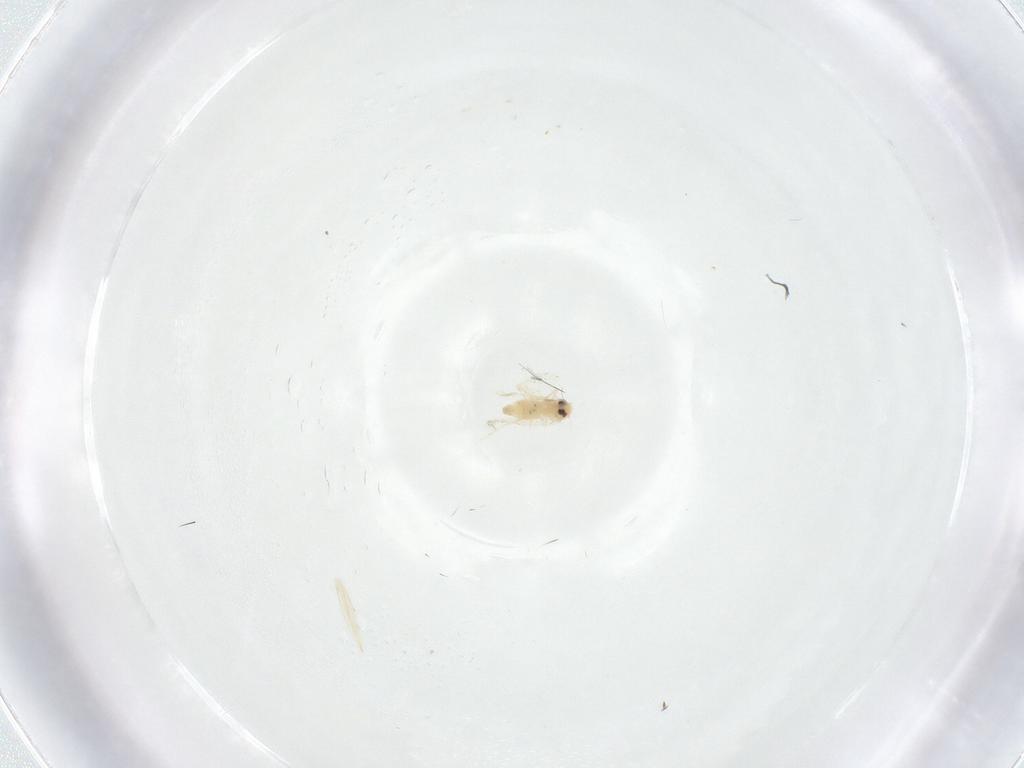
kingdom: Animalia
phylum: Arthropoda
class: Insecta
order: Hemiptera
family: Aleyrodidae
